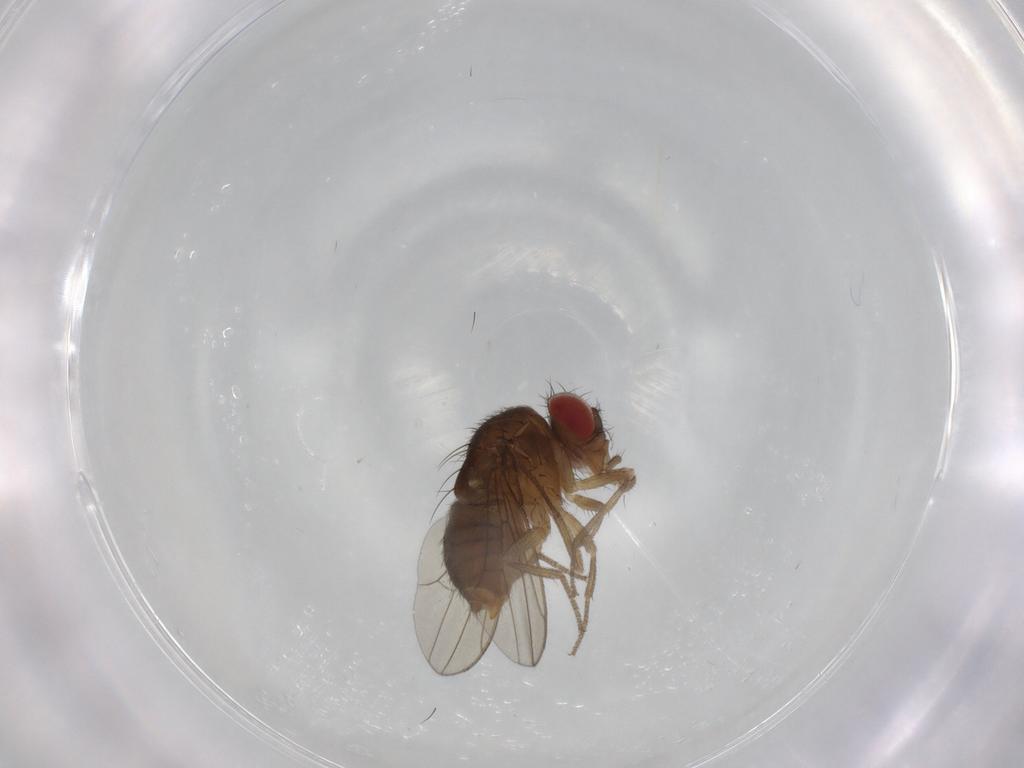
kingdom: Animalia
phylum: Arthropoda
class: Insecta
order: Diptera
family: Drosophilidae
